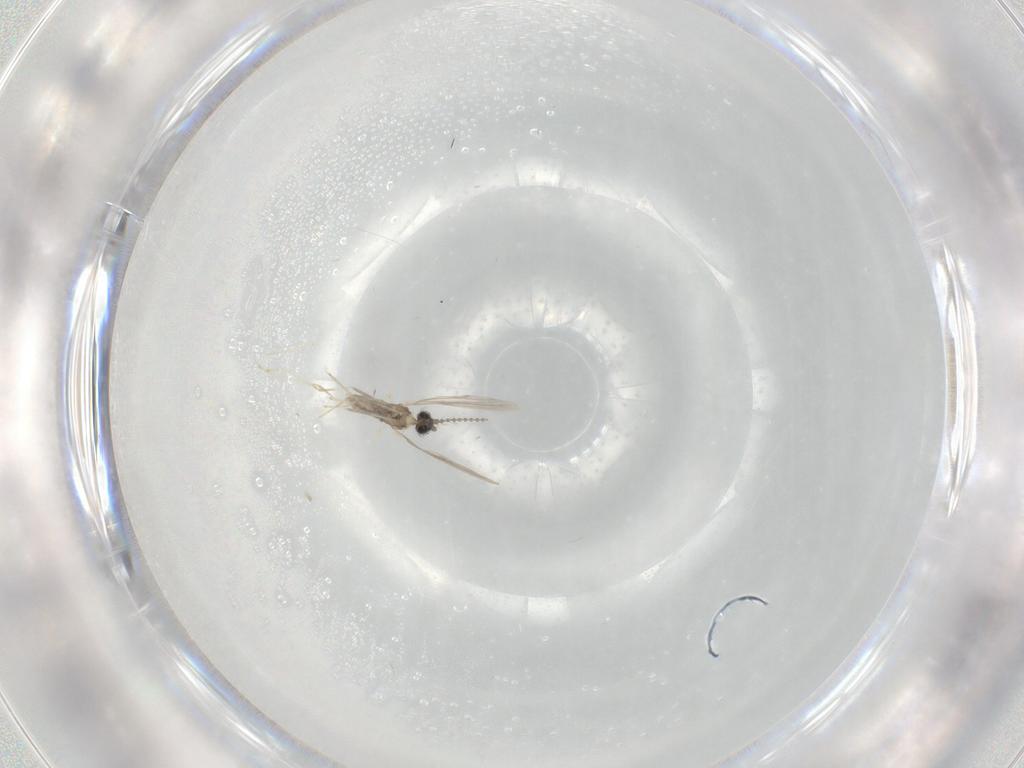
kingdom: Animalia
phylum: Arthropoda
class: Insecta
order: Diptera
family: Cecidomyiidae
